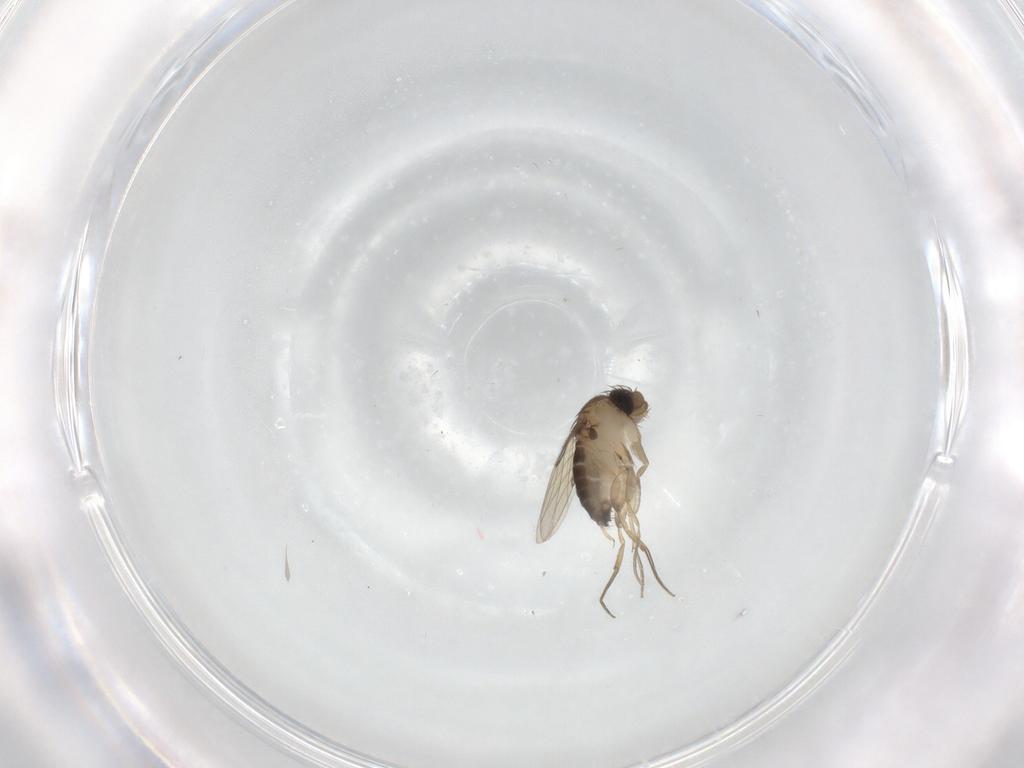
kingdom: Animalia
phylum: Arthropoda
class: Insecta
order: Diptera
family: Phoridae
